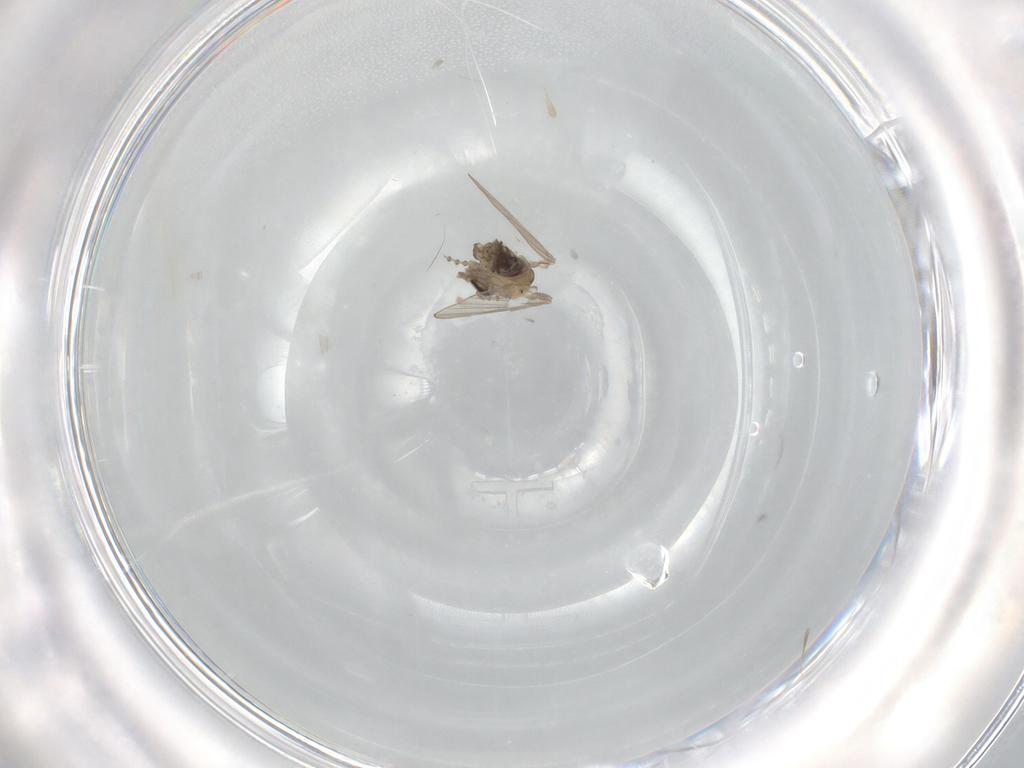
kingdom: Animalia
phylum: Arthropoda
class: Insecta
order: Diptera
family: Psychodidae
